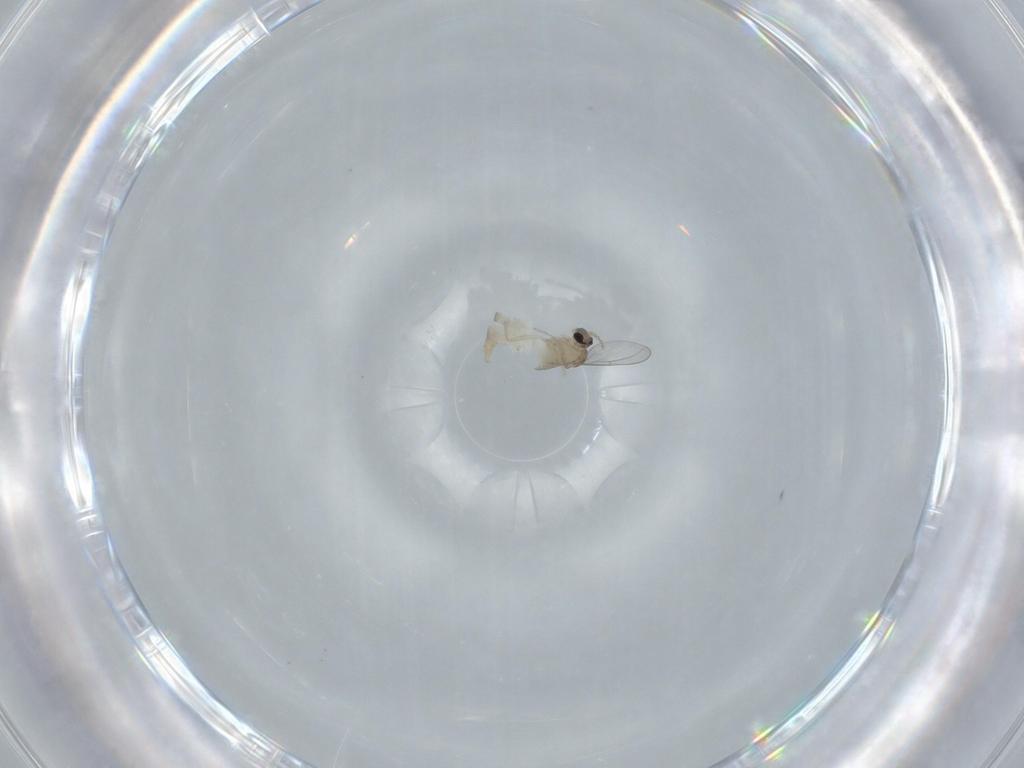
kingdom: Animalia
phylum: Arthropoda
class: Insecta
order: Diptera
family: Cecidomyiidae
